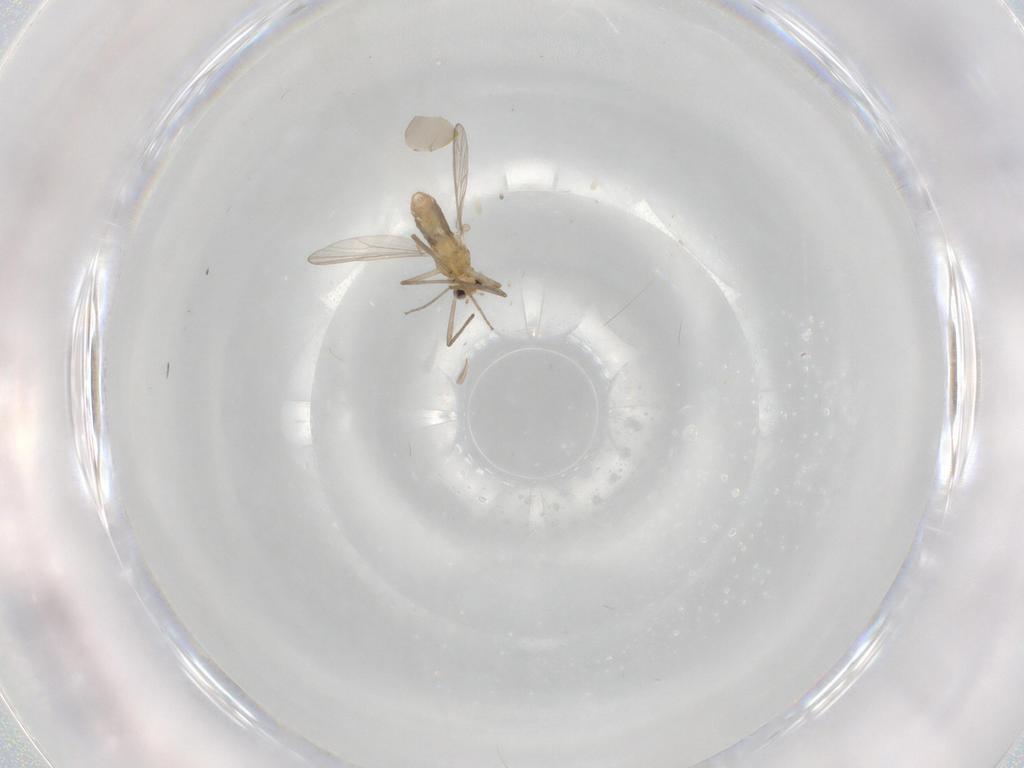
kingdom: Animalia
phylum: Arthropoda
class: Insecta
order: Diptera
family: Chironomidae
